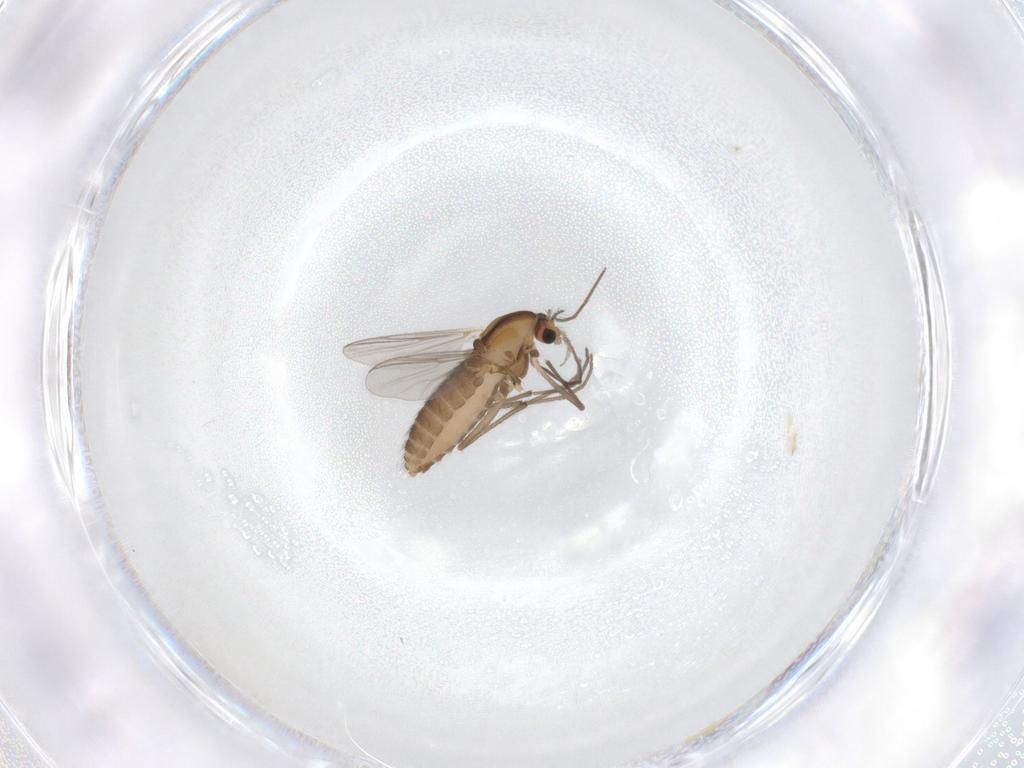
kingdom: Animalia
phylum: Arthropoda
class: Insecta
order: Diptera
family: Chironomidae
